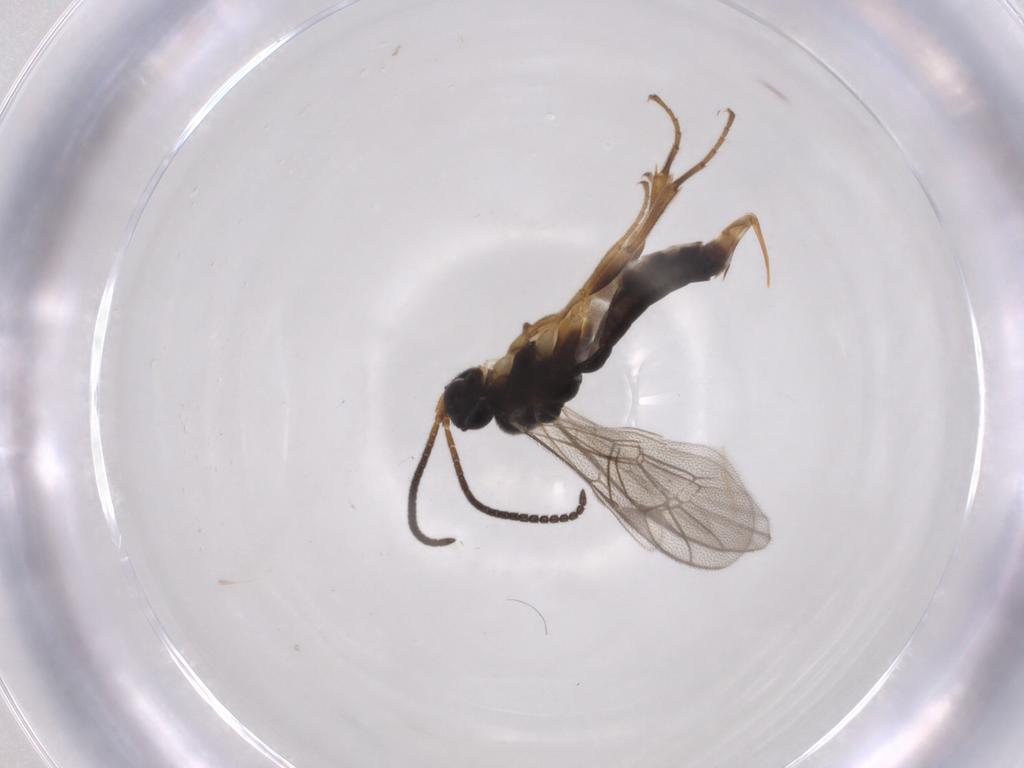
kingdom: Animalia
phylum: Arthropoda
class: Insecta
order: Hymenoptera
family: Ichneumonidae
